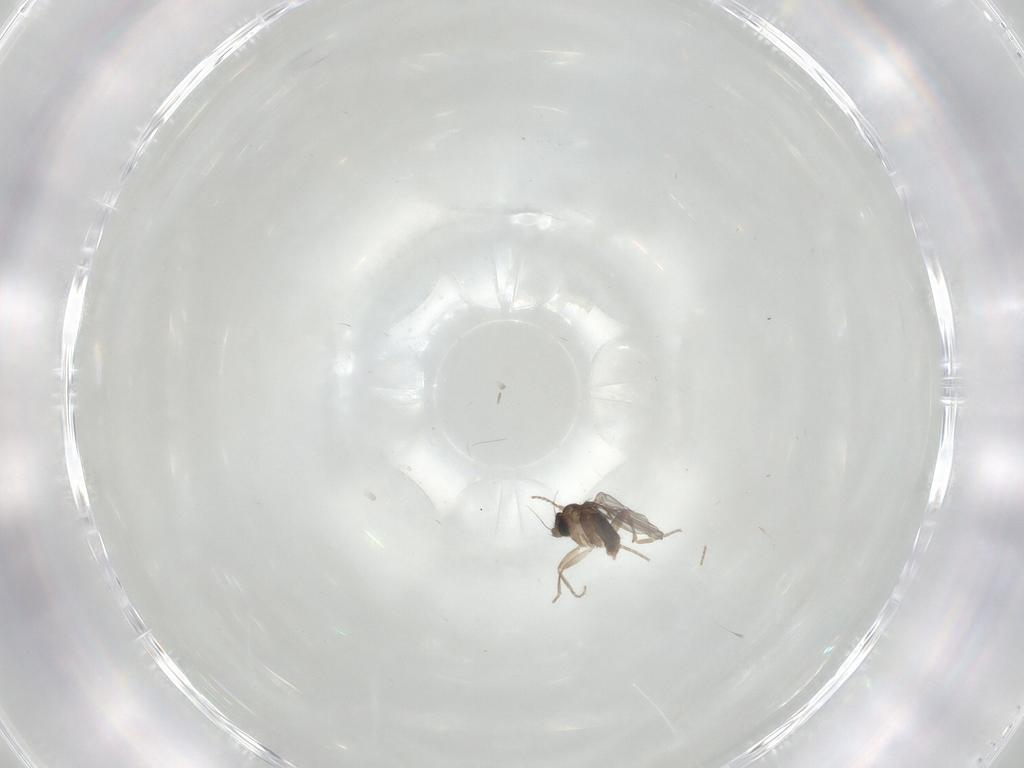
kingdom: Animalia
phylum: Arthropoda
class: Insecta
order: Diptera
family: Phoridae
